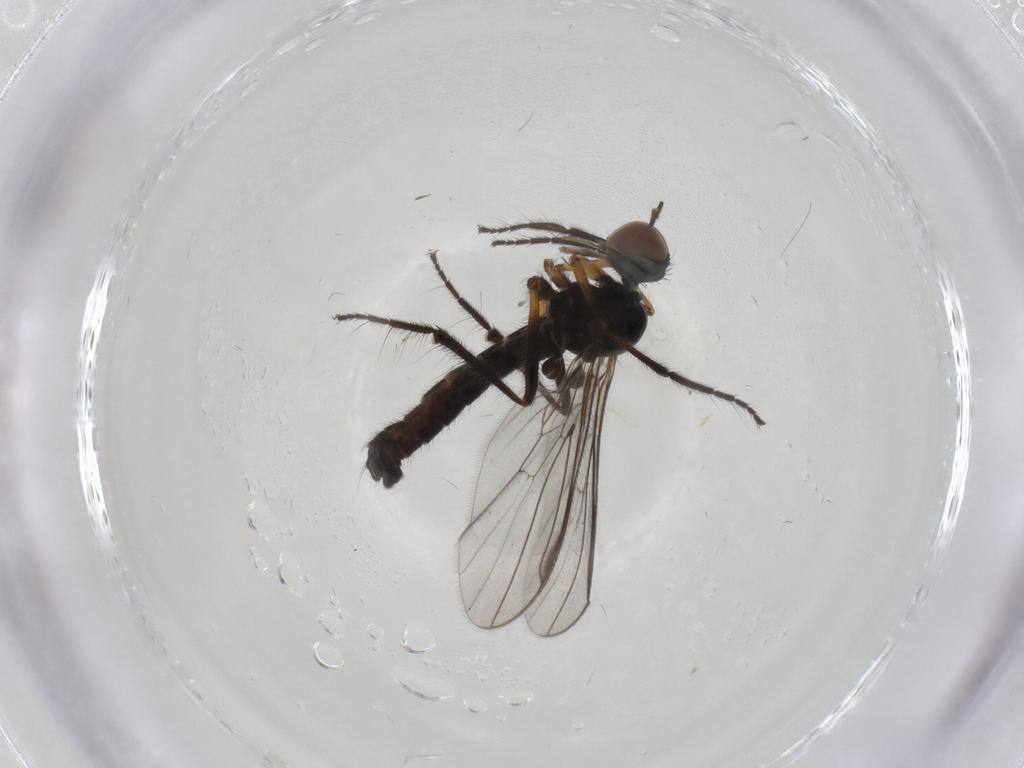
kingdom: Animalia
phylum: Arthropoda
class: Insecta
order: Diptera
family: Empididae
